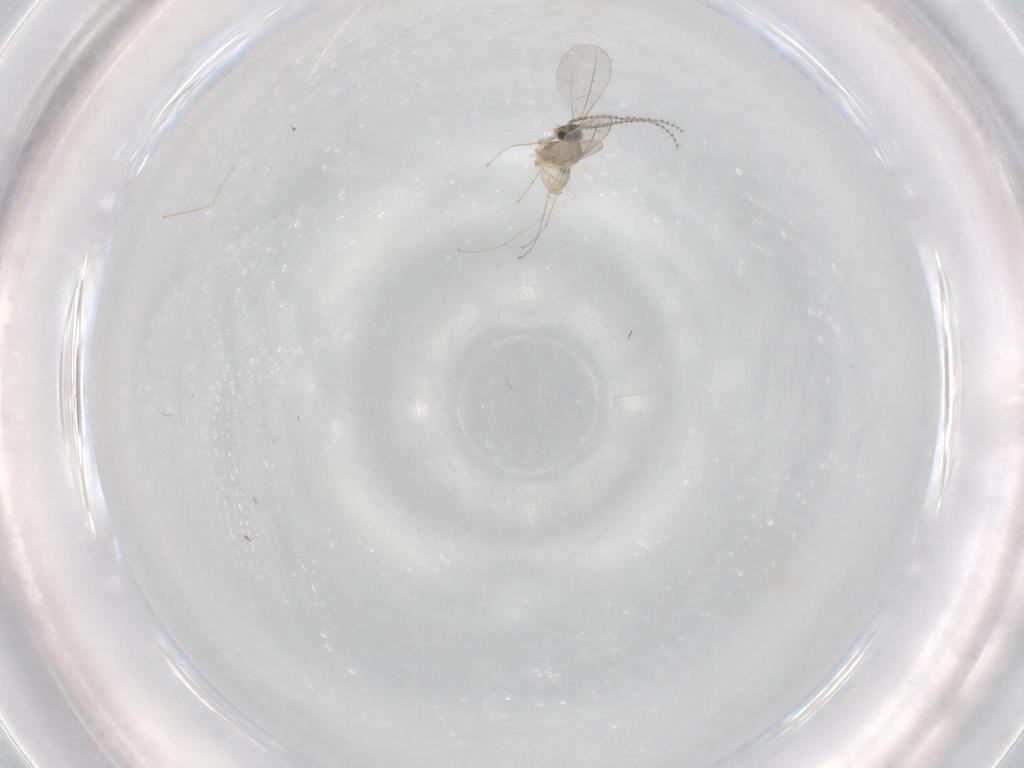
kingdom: Animalia
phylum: Arthropoda
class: Insecta
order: Diptera
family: Cecidomyiidae
